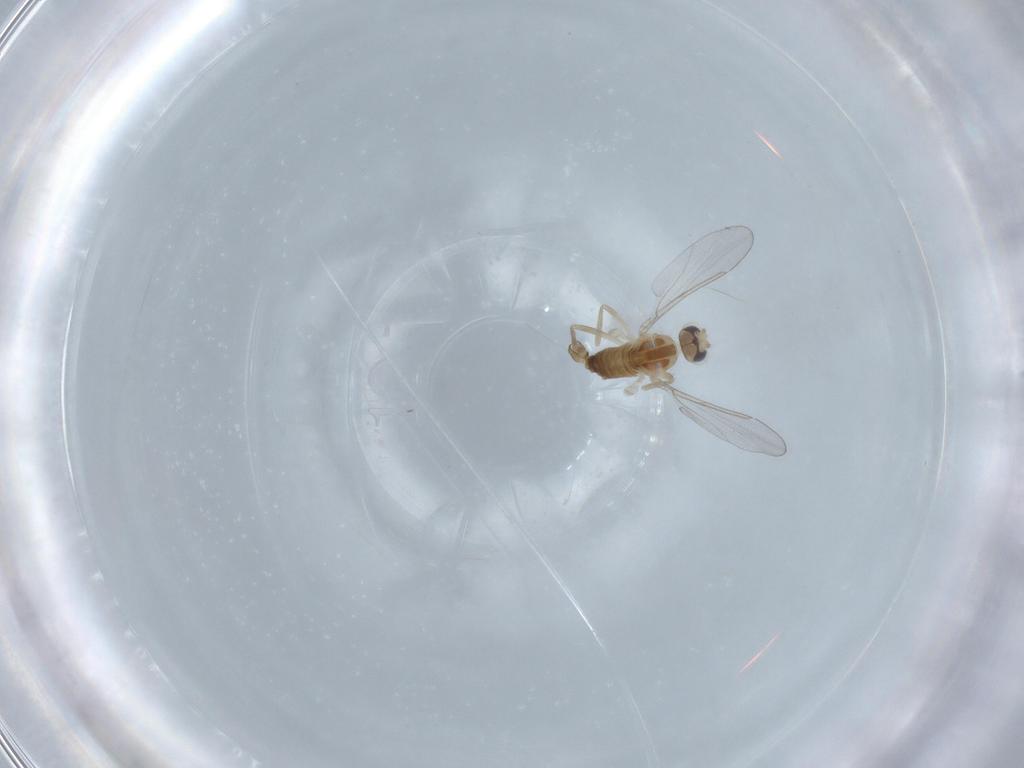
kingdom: Animalia
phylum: Arthropoda
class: Insecta
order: Diptera
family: Cecidomyiidae
